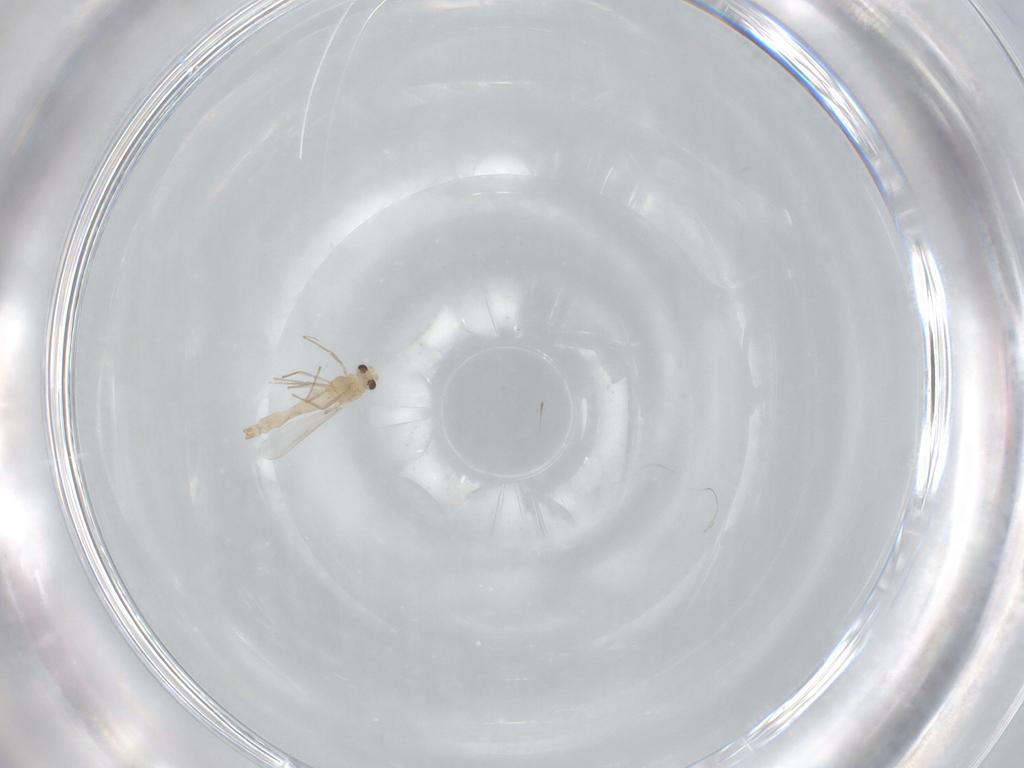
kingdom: Animalia
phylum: Arthropoda
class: Insecta
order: Diptera
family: Chironomidae
